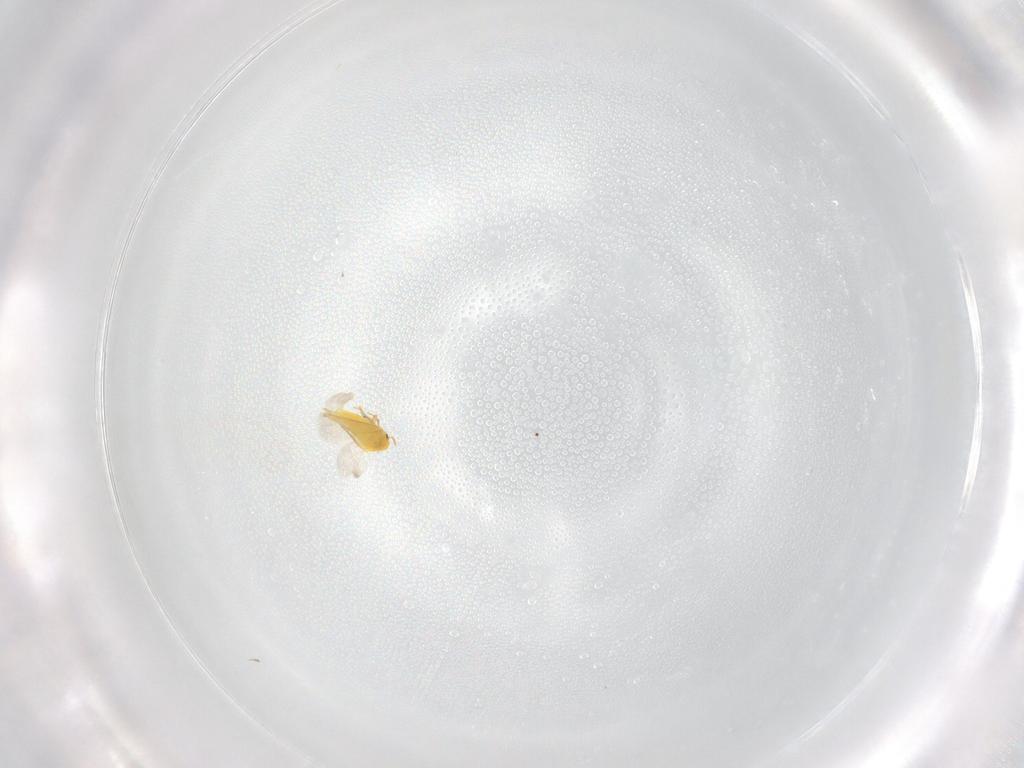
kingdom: Animalia
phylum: Arthropoda
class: Insecta
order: Hemiptera
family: Aleyrodidae
